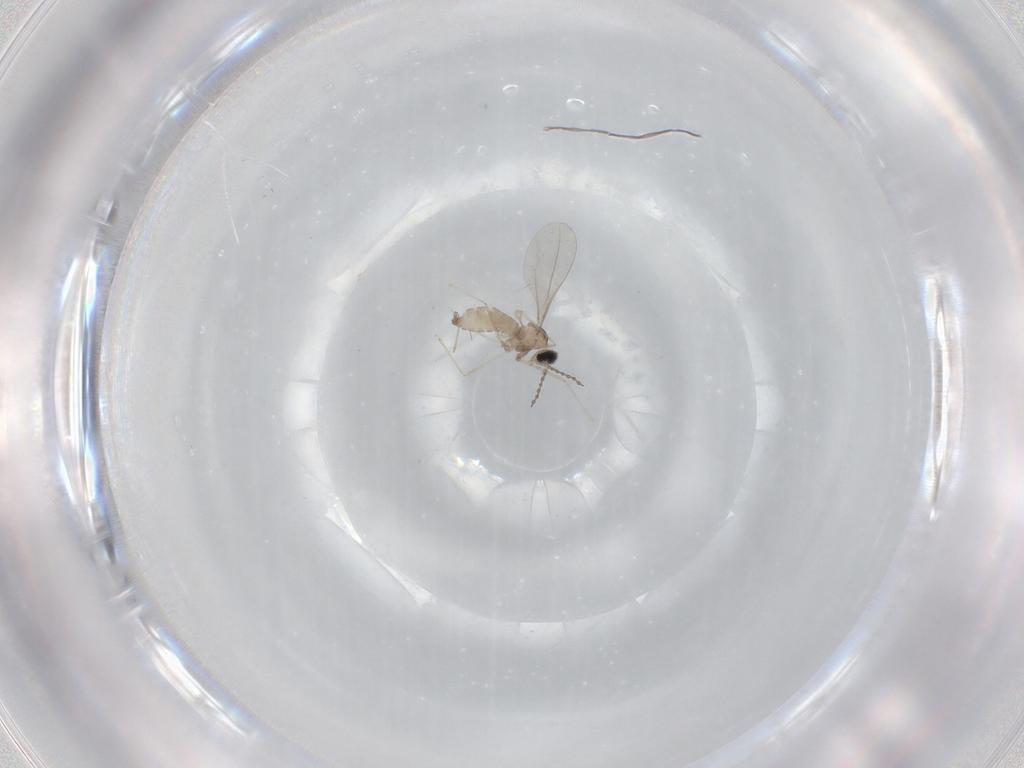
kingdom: Animalia
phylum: Arthropoda
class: Insecta
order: Diptera
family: Cecidomyiidae
